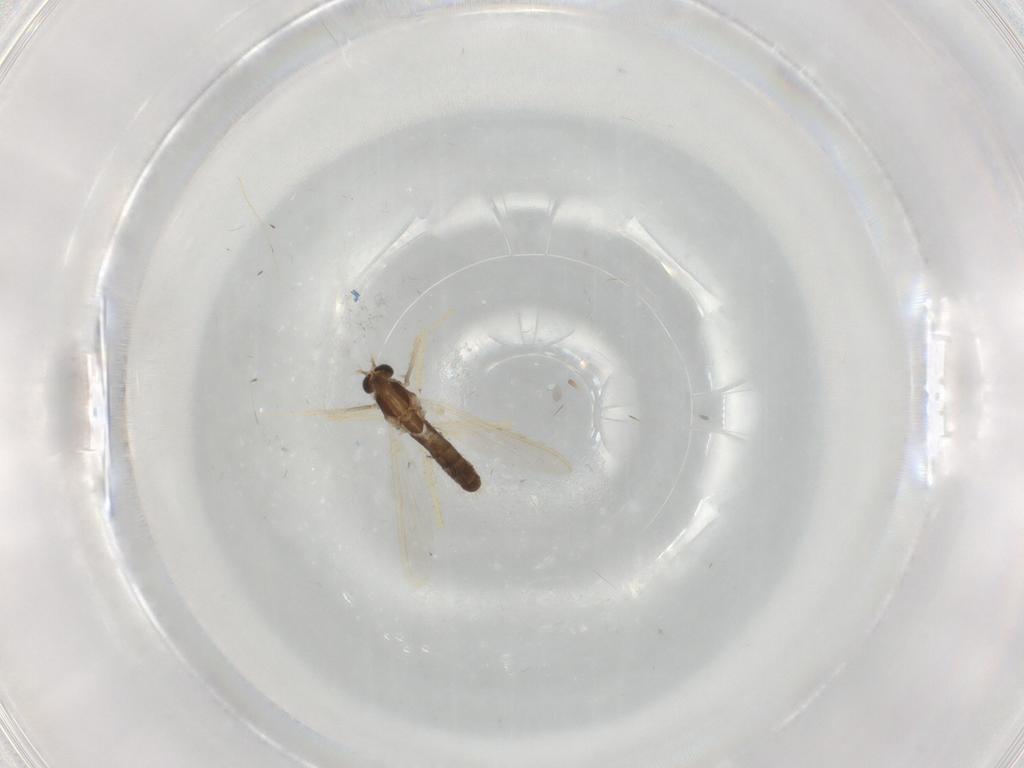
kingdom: Animalia
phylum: Arthropoda
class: Insecta
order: Diptera
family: Chironomidae
